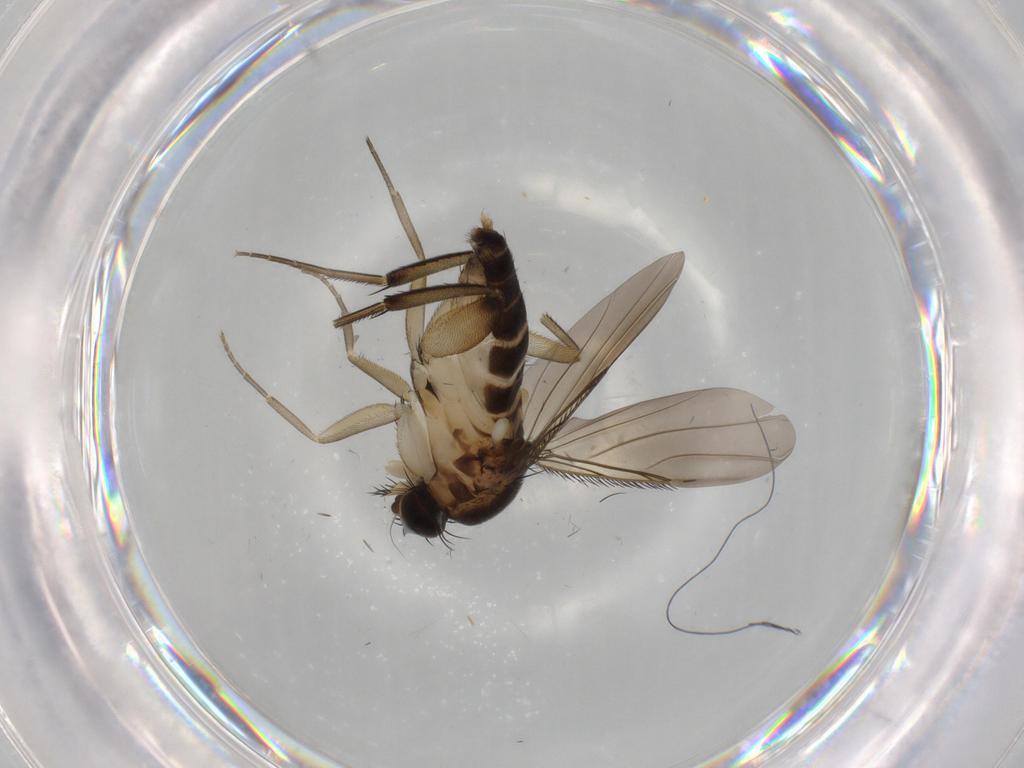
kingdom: Animalia
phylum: Arthropoda
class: Insecta
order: Diptera
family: Phoridae
